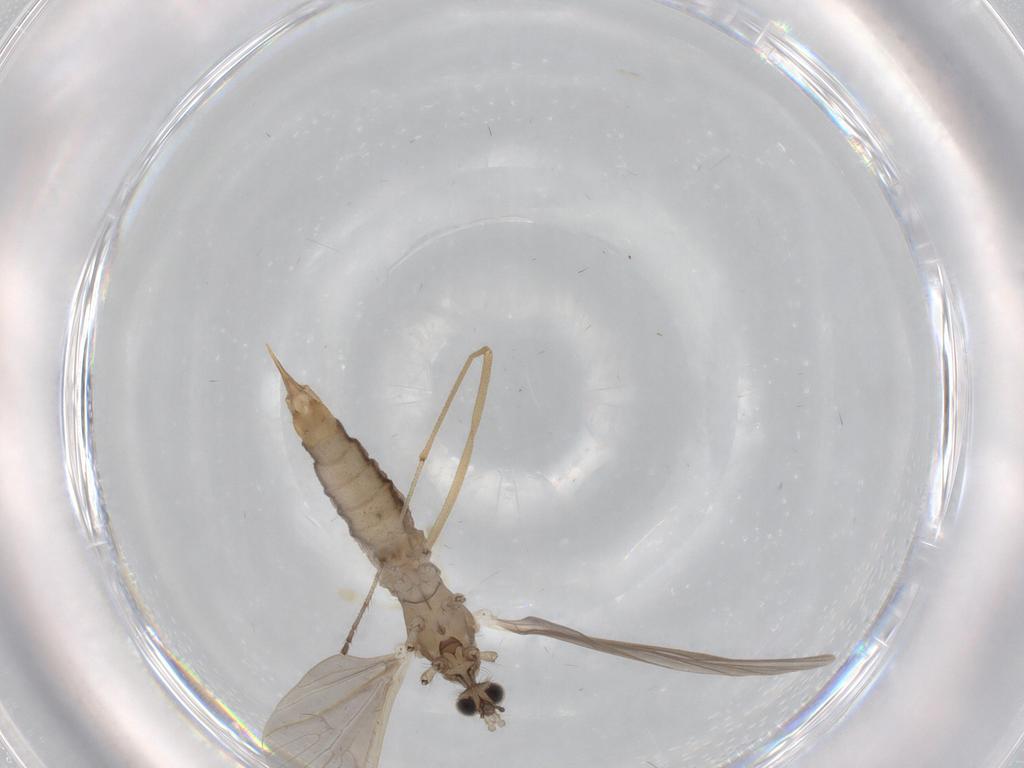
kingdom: Animalia
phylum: Arthropoda
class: Insecta
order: Diptera
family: Limoniidae
